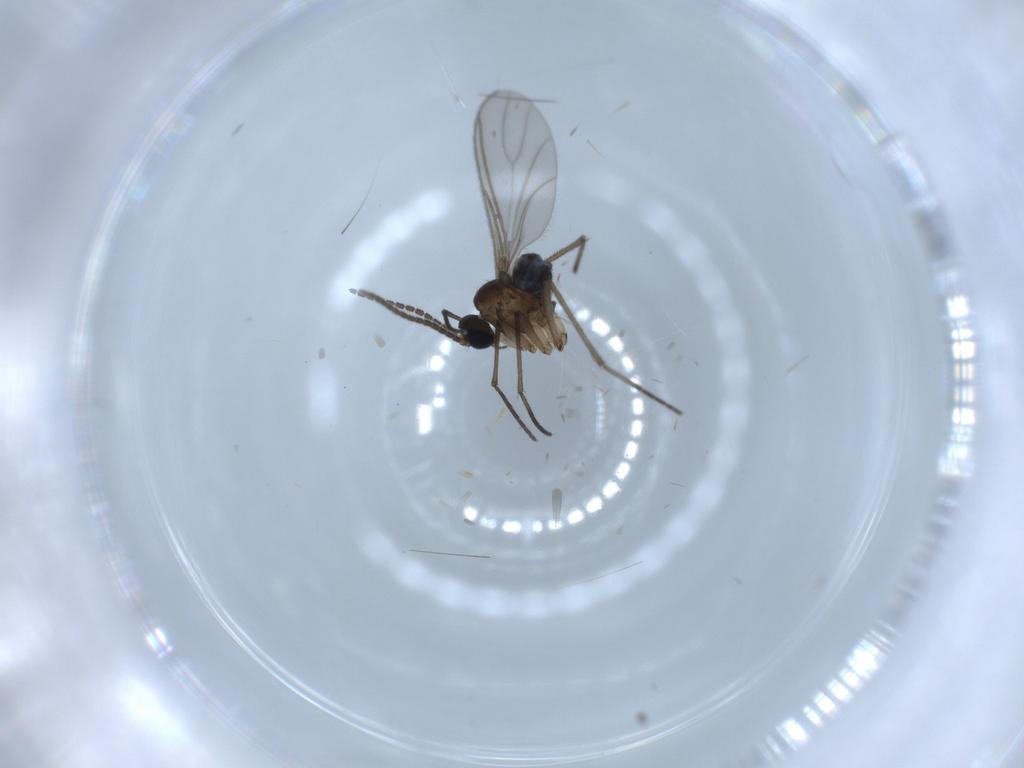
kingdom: Animalia
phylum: Arthropoda
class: Insecta
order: Diptera
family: Sciaridae
